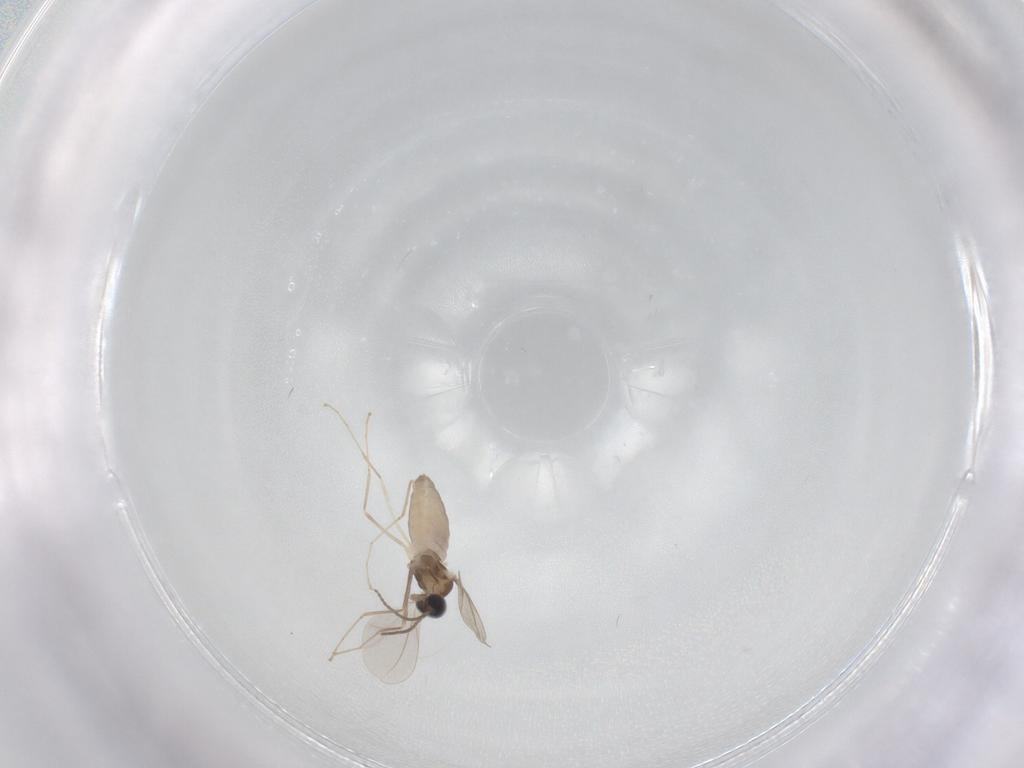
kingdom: Animalia
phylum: Arthropoda
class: Insecta
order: Diptera
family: Cecidomyiidae
